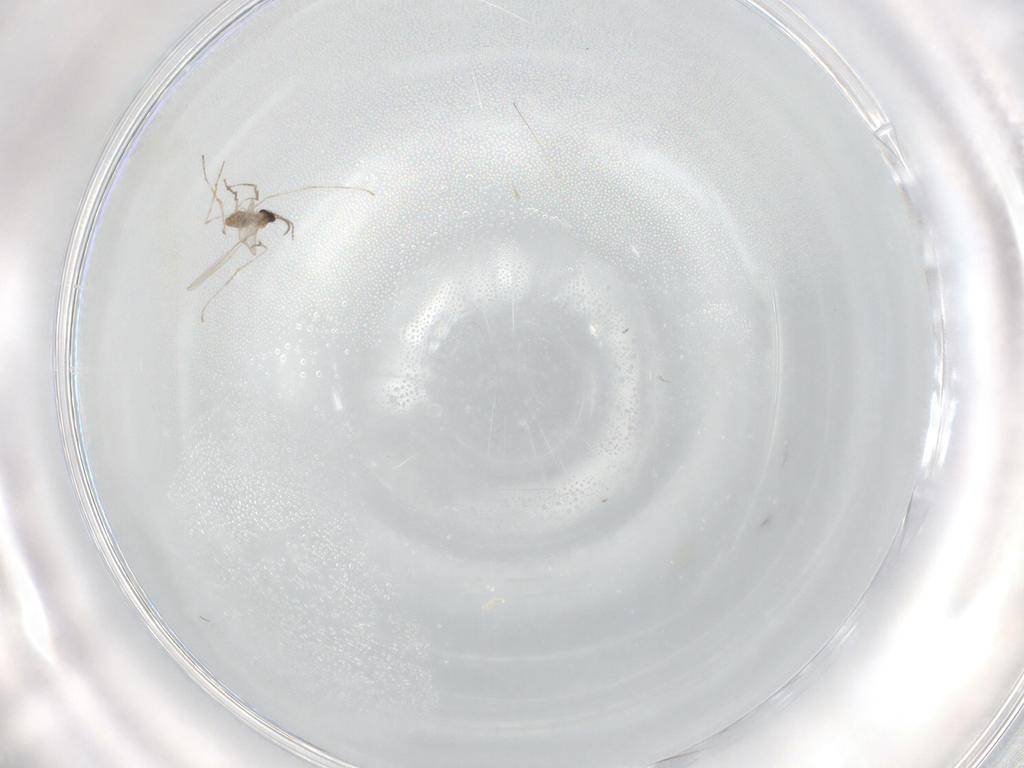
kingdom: Animalia
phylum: Arthropoda
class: Insecta
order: Diptera
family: Cecidomyiidae
